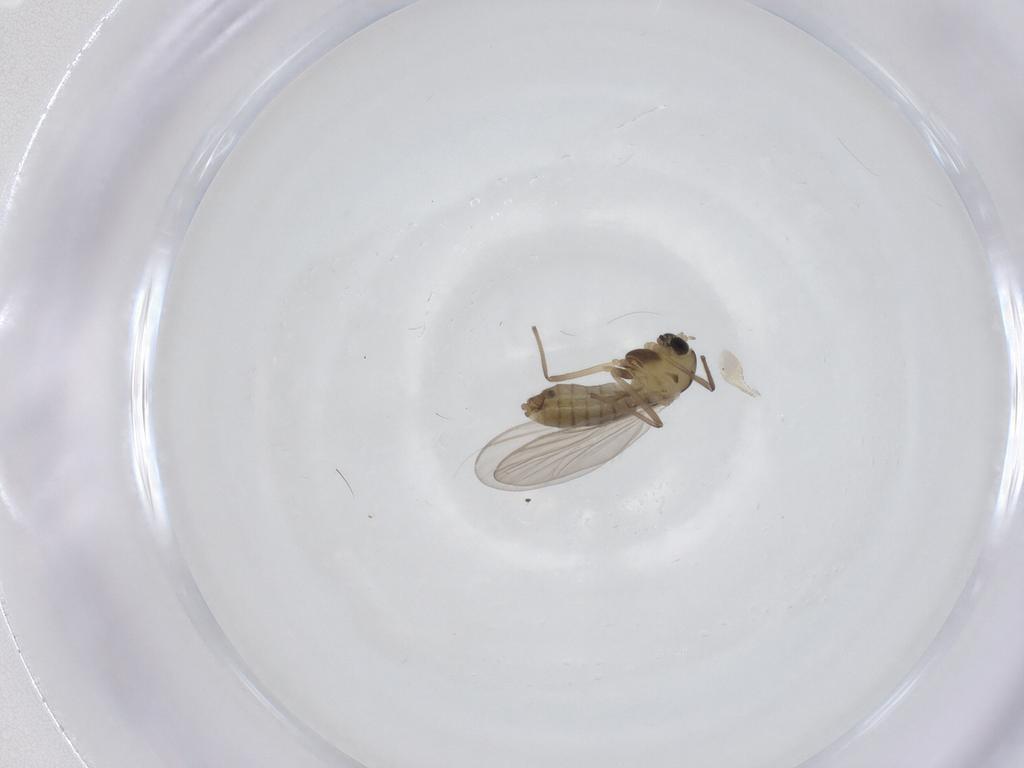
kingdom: Animalia
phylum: Arthropoda
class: Insecta
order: Diptera
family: Chironomidae
